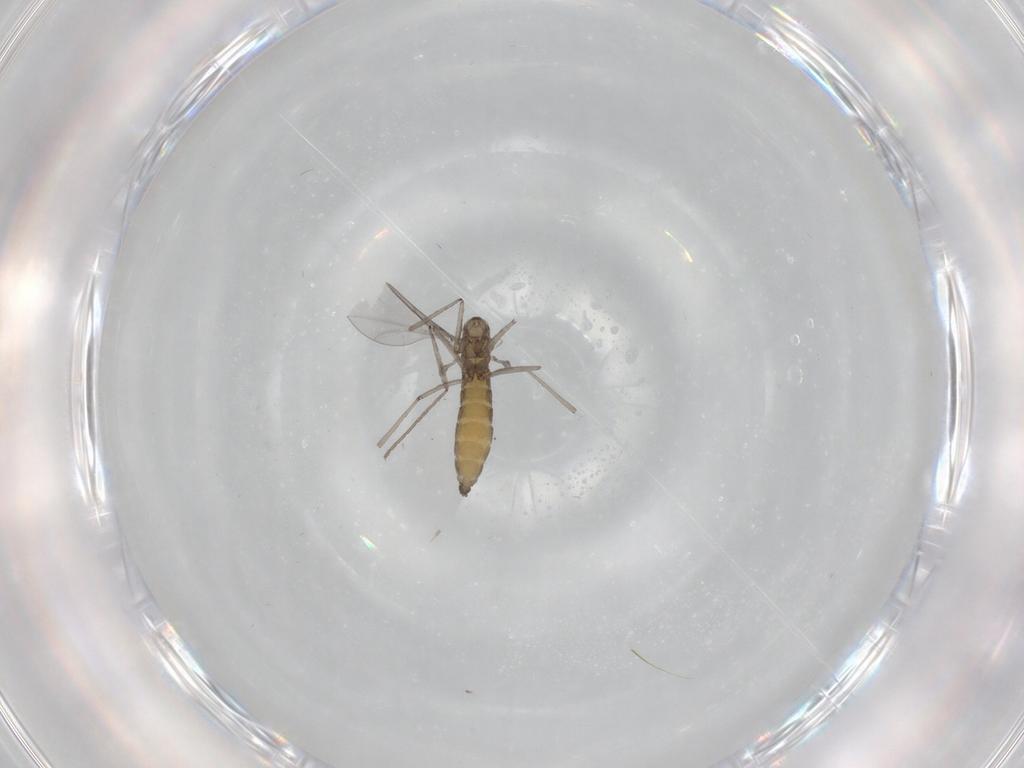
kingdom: Animalia
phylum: Arthropoda
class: Insecta
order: Diptera
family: Cecidomyiidae
